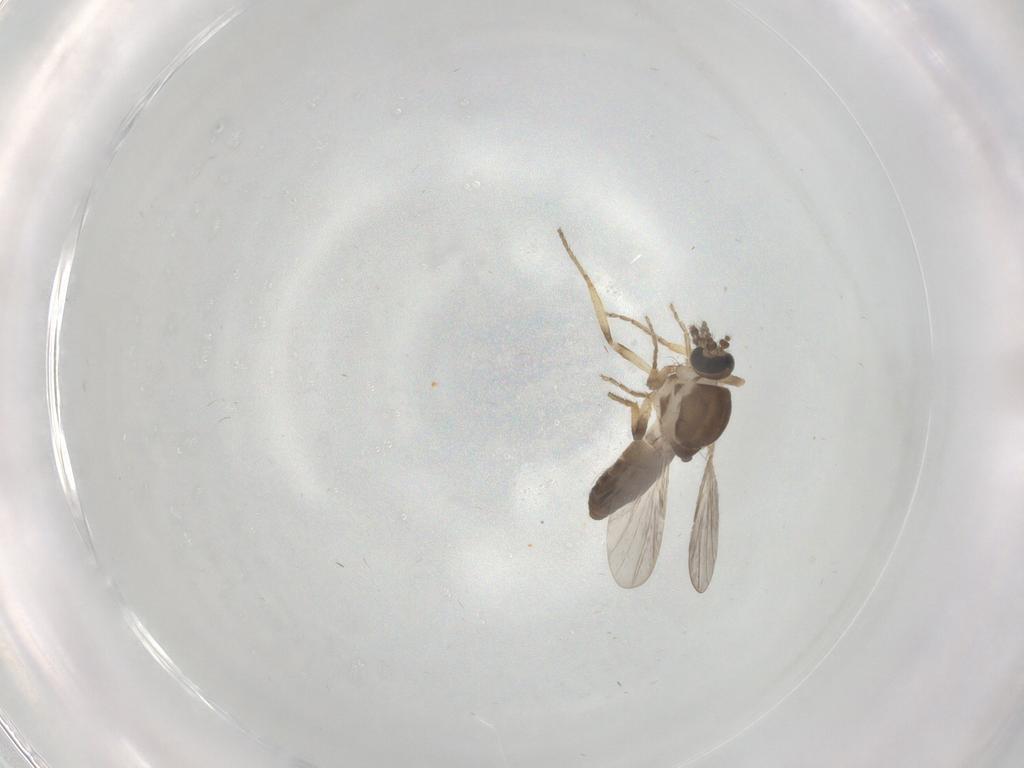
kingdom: Animalia
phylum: Arthropoda
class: Insecta
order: Diptera
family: Ceratopogonidae
